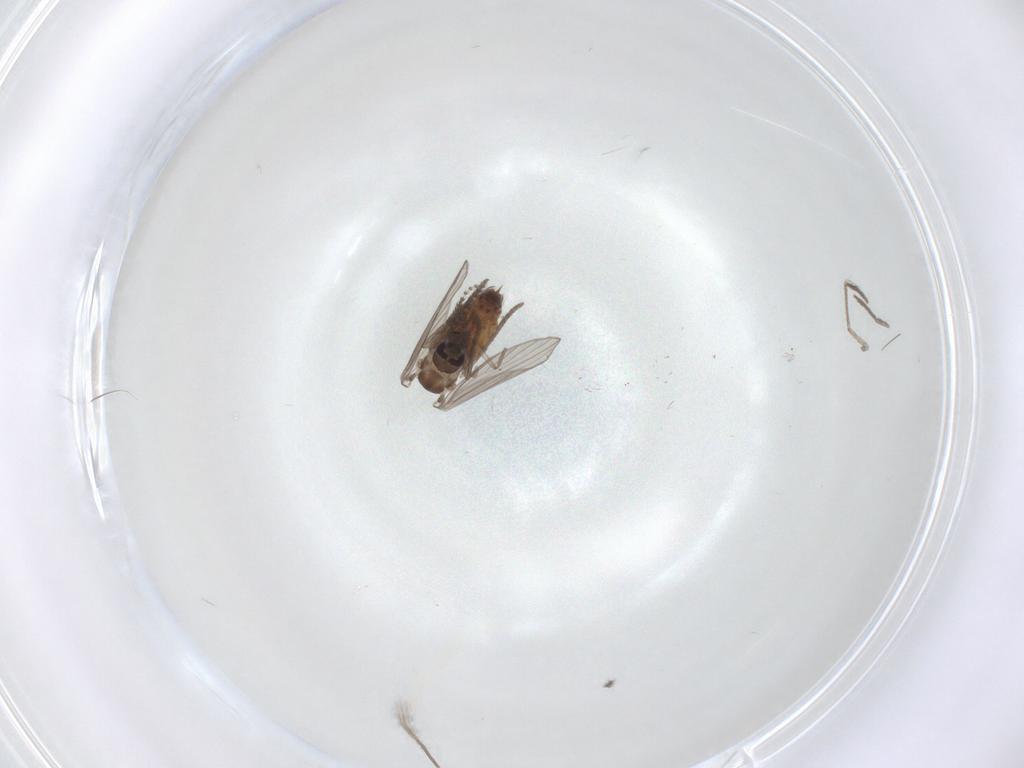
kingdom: Animalia
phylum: Arthropoda
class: Insecta
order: Diptera
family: Psychodidae
